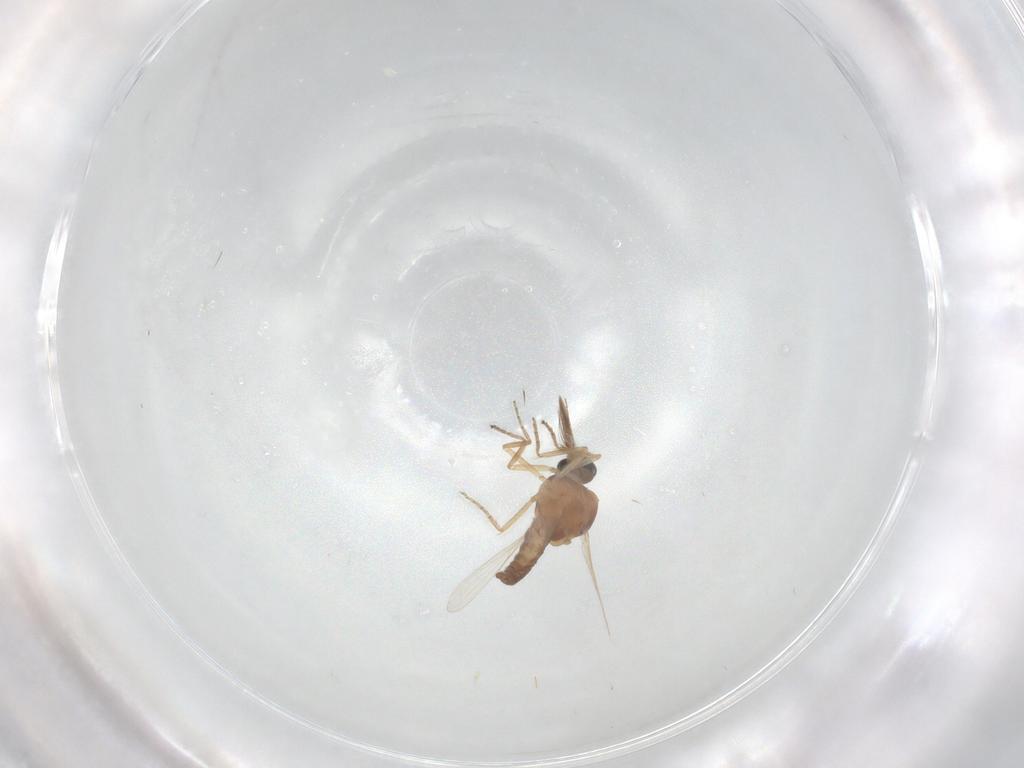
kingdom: Animalia
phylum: Arthropoda
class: Insecta
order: Diptera
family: Ceratopogonidae
